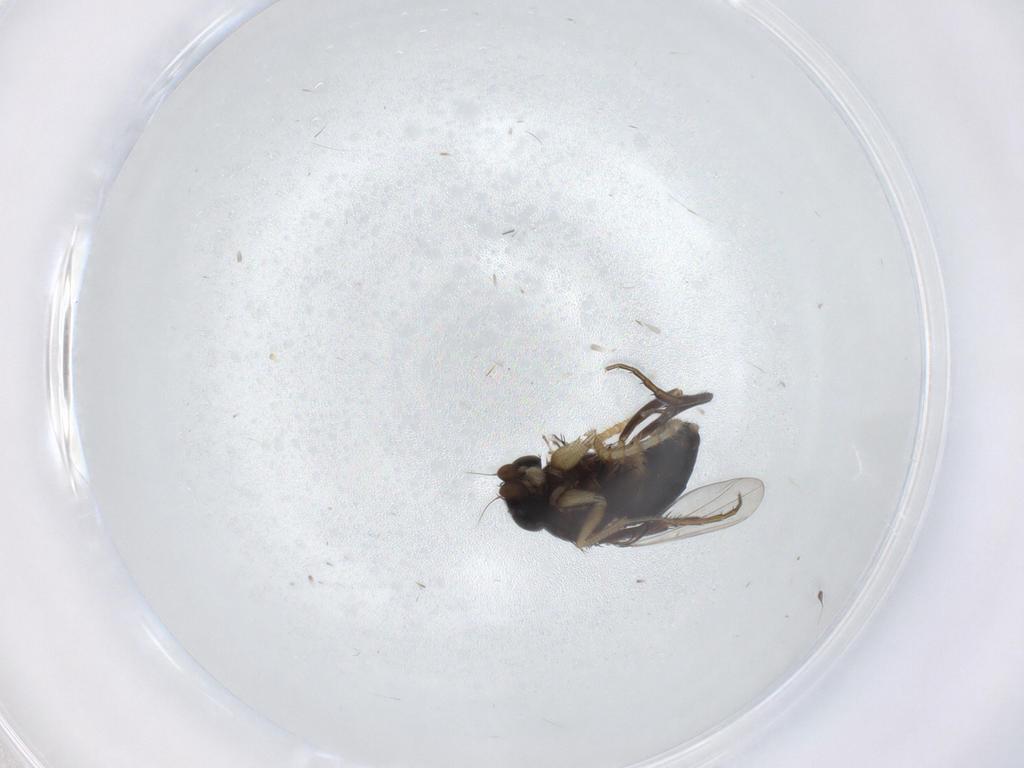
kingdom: Animalia
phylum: Arthropoda
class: Insecta
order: Diptera
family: Phoridae
